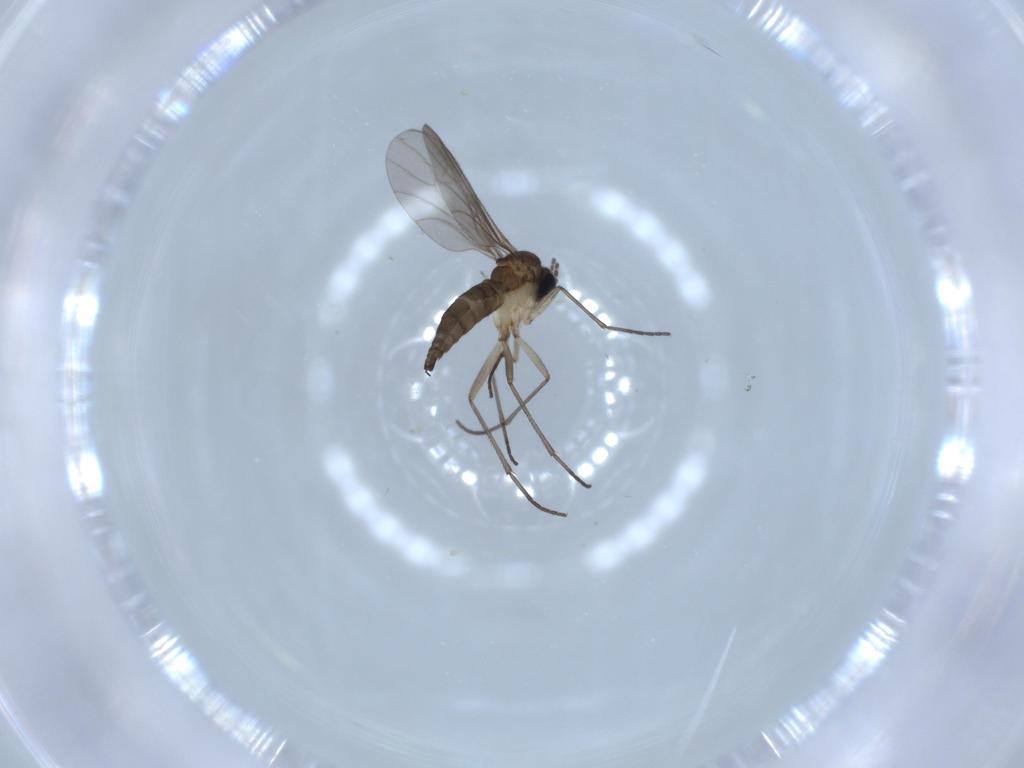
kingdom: Animalia
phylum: Arthropoda
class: Insecta
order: Diptera
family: Sciaridae
